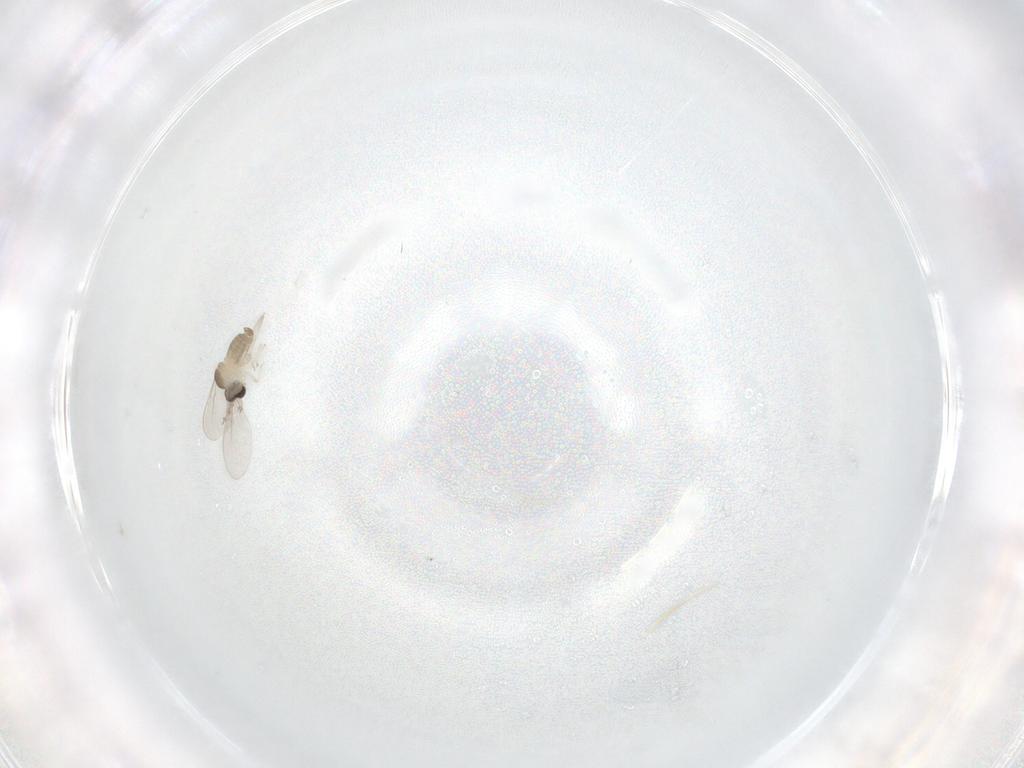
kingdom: Animalia
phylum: Arthropoda
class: Insecta
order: Diptera
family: Cecidomyiidae
